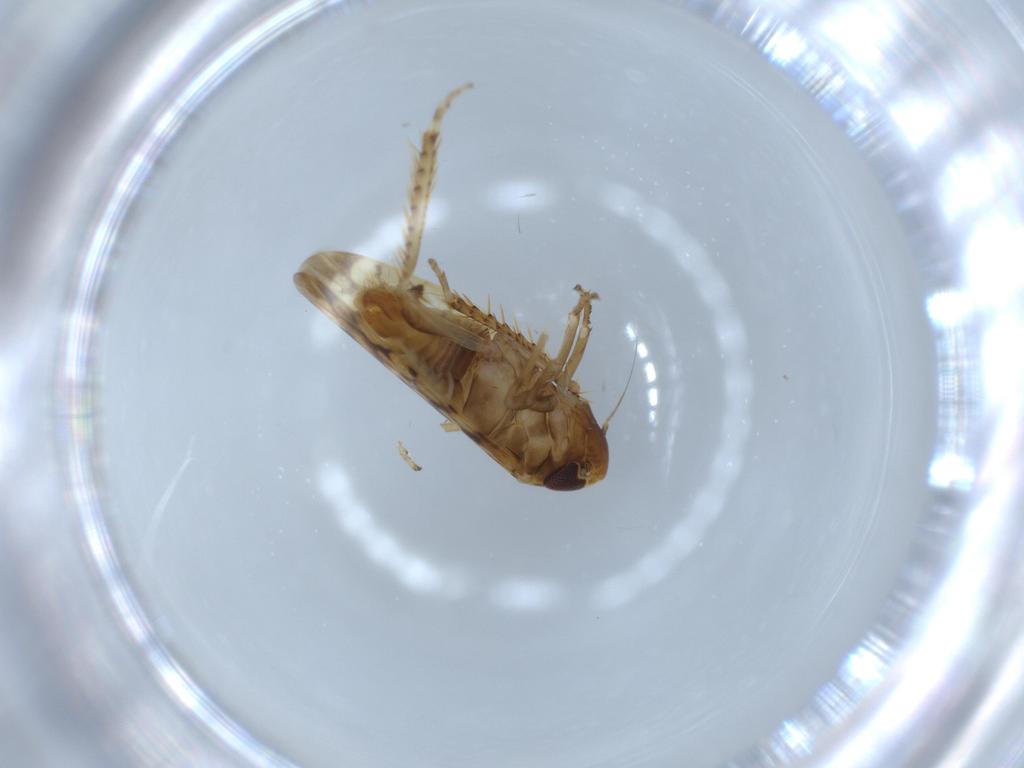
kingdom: Animalia
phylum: Arthropoda
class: Insecta
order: Hemiptera
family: Cicadellidae
